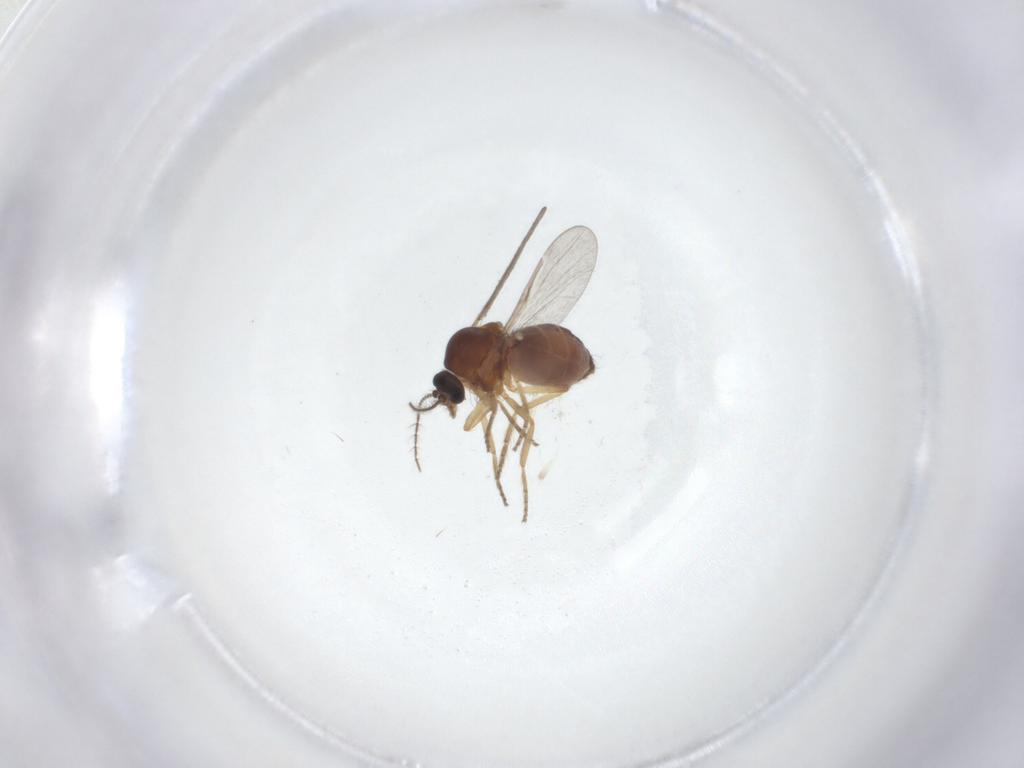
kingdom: Animalia
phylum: Arthropoda
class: Insecta
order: Diptera
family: Ceratopogonidae
